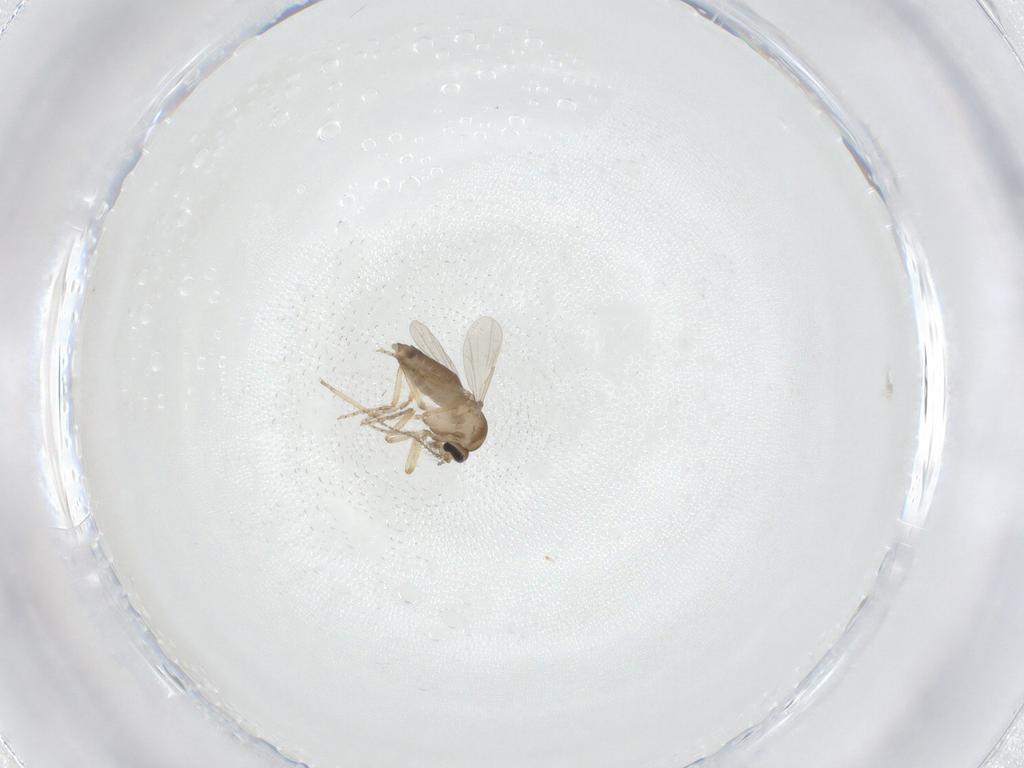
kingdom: Animalia
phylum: Arthropoda
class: Insecta
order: Diptera
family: Ceratopogonidae
